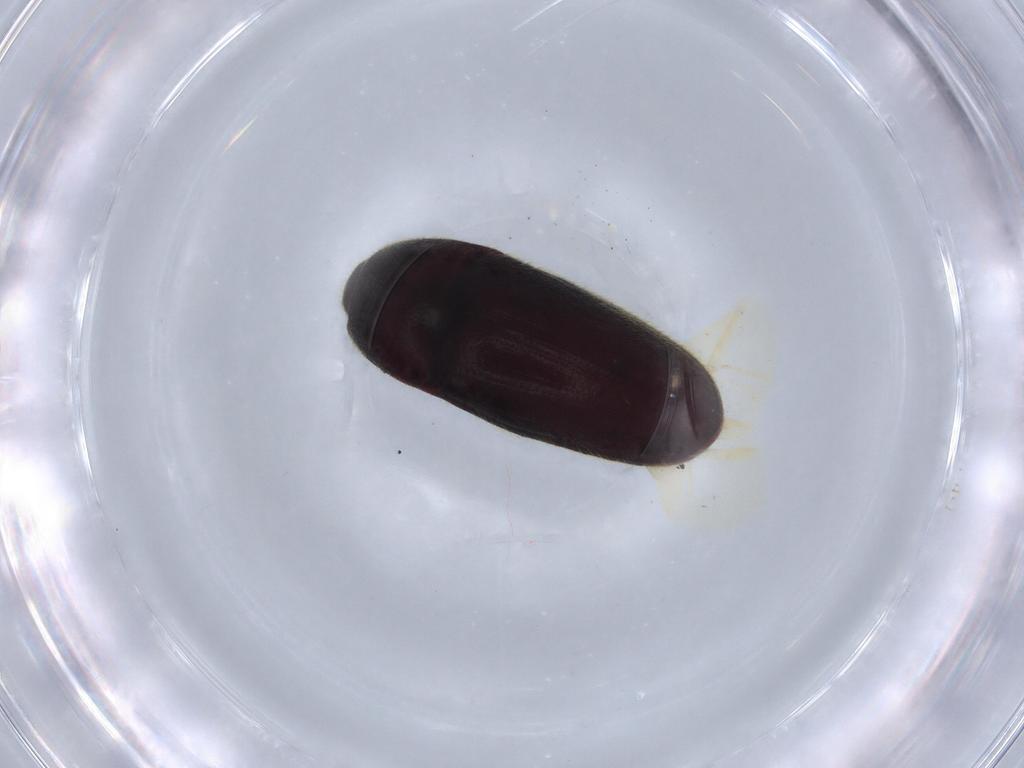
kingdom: Animalia
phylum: Arthropoda
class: Insecta
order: Coleoptera
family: Throscidae
